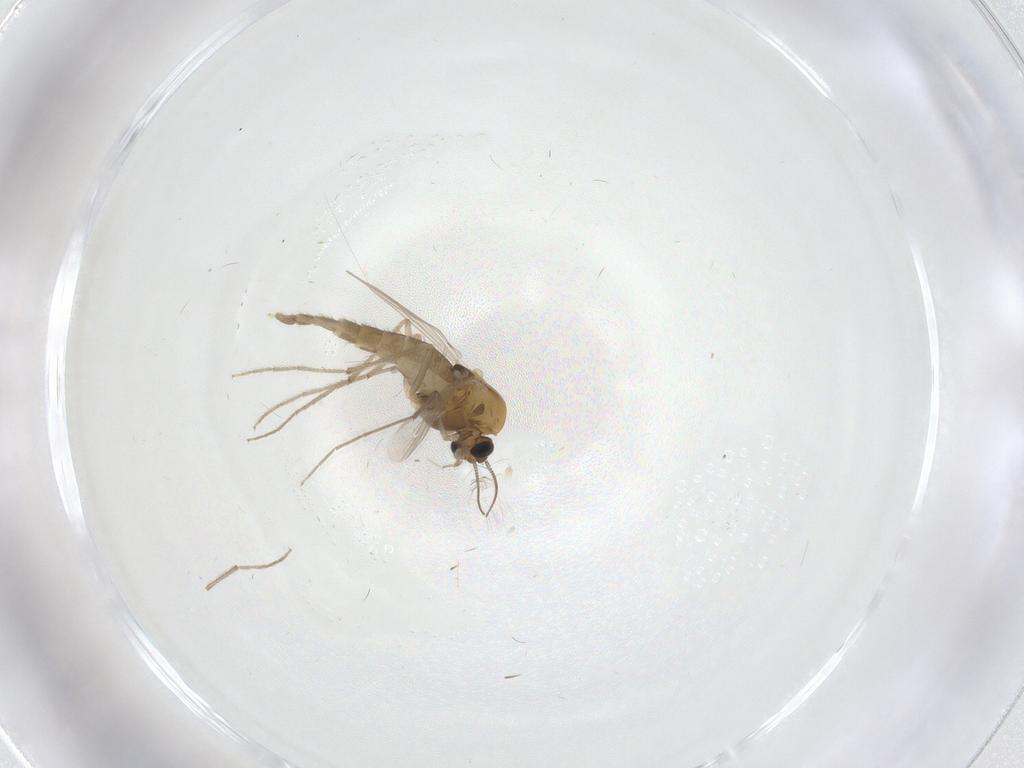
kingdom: Animalia
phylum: Arthropoda
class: Insecta
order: Diptera
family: Chironomidae
